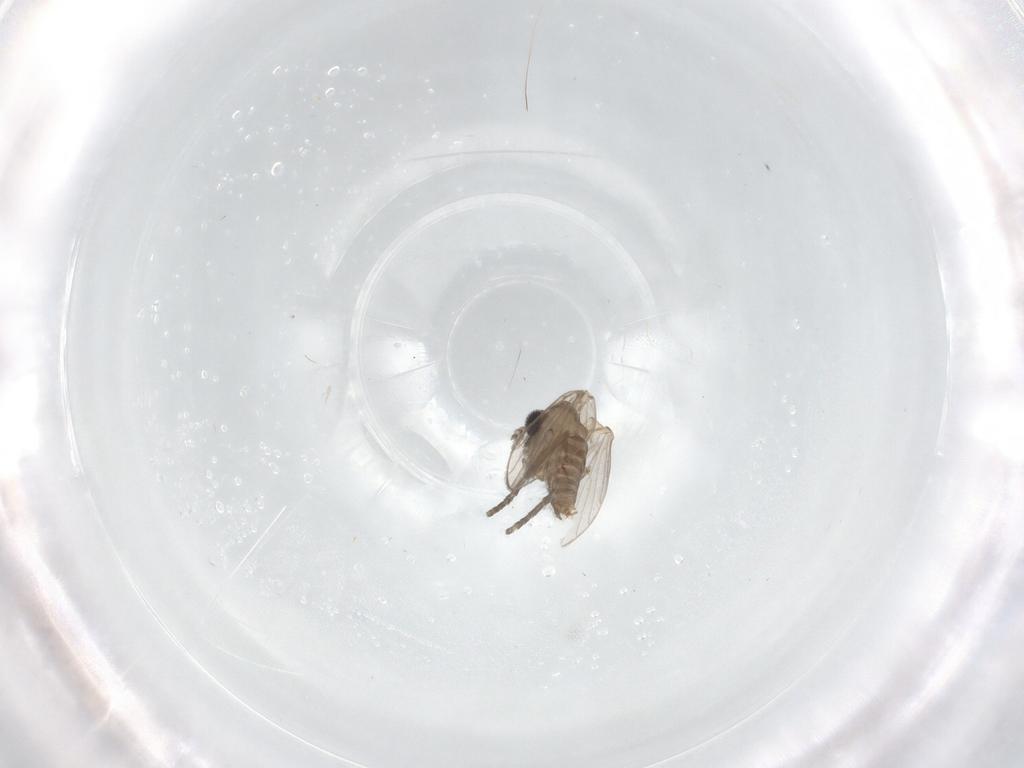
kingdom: Animalia
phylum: Arthropoda
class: Insecta
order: Diptera
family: Psychodidae
